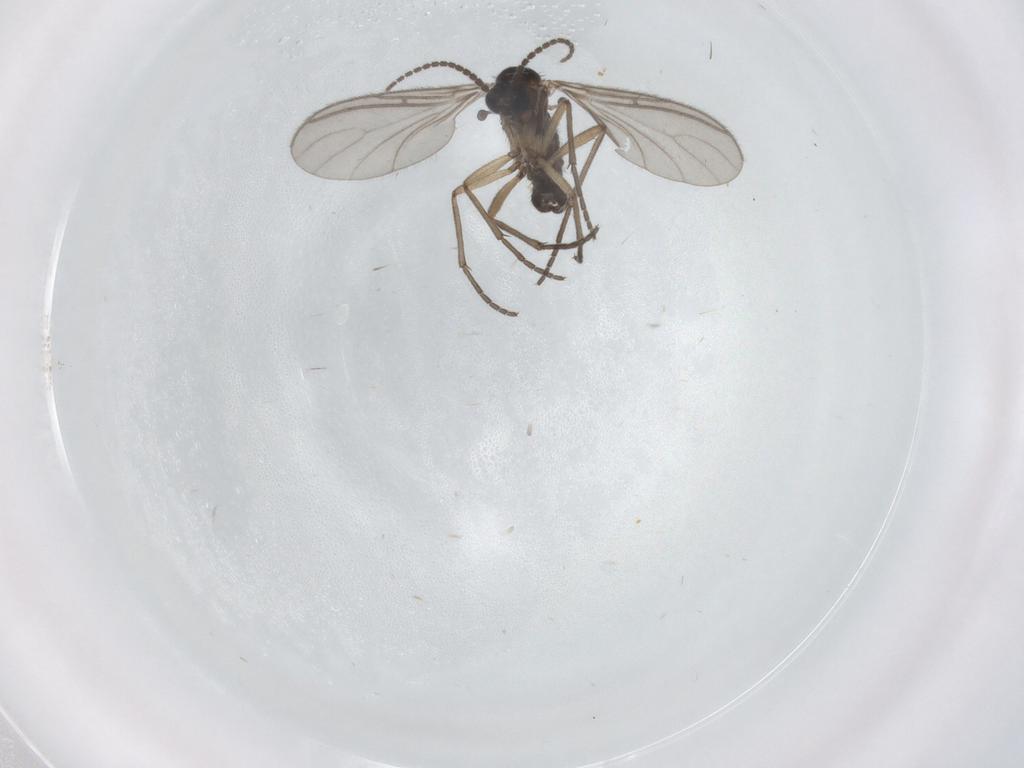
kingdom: Animalia
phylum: Arthropoda
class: Insecta
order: Diptera
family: Sciaridae
